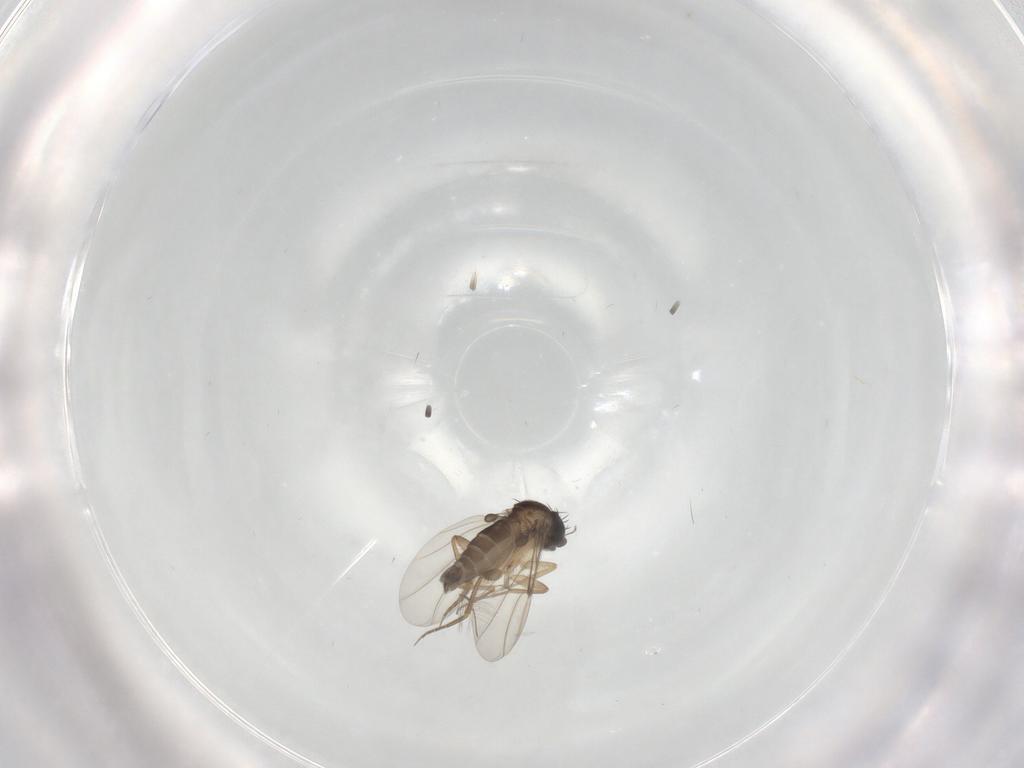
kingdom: Animalia
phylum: Arthropoda
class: Insecta
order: Diptera
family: Phoridae
